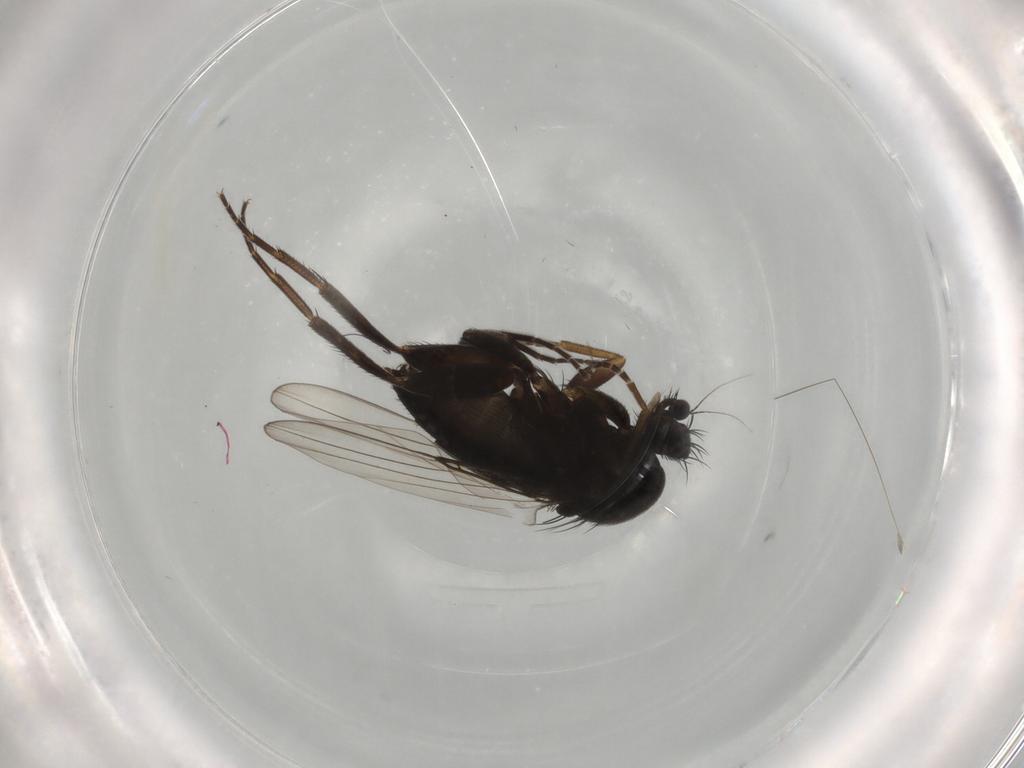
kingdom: Animalia
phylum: Arthropoda
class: Insecta
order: Diptera
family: Phoridae
